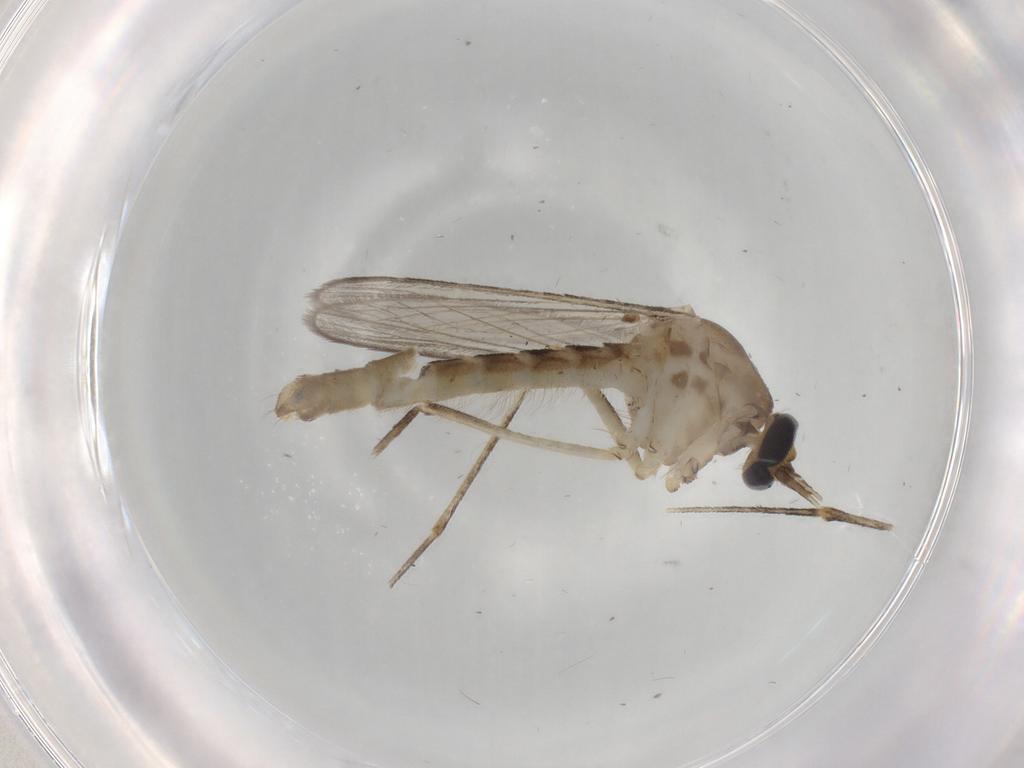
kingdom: Animalia
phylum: Arthropoda
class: Insecta
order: Diptera
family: Culicidae
